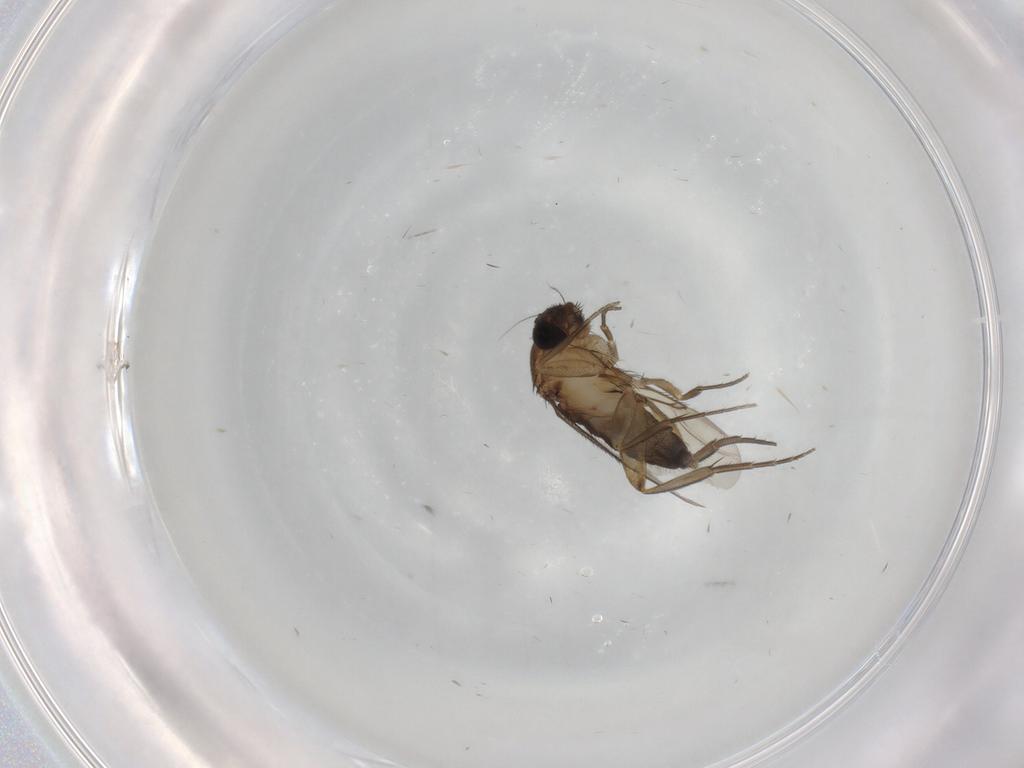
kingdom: Animalia
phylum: Arthropoda
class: Insecta
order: Diptera
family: Phoridae
